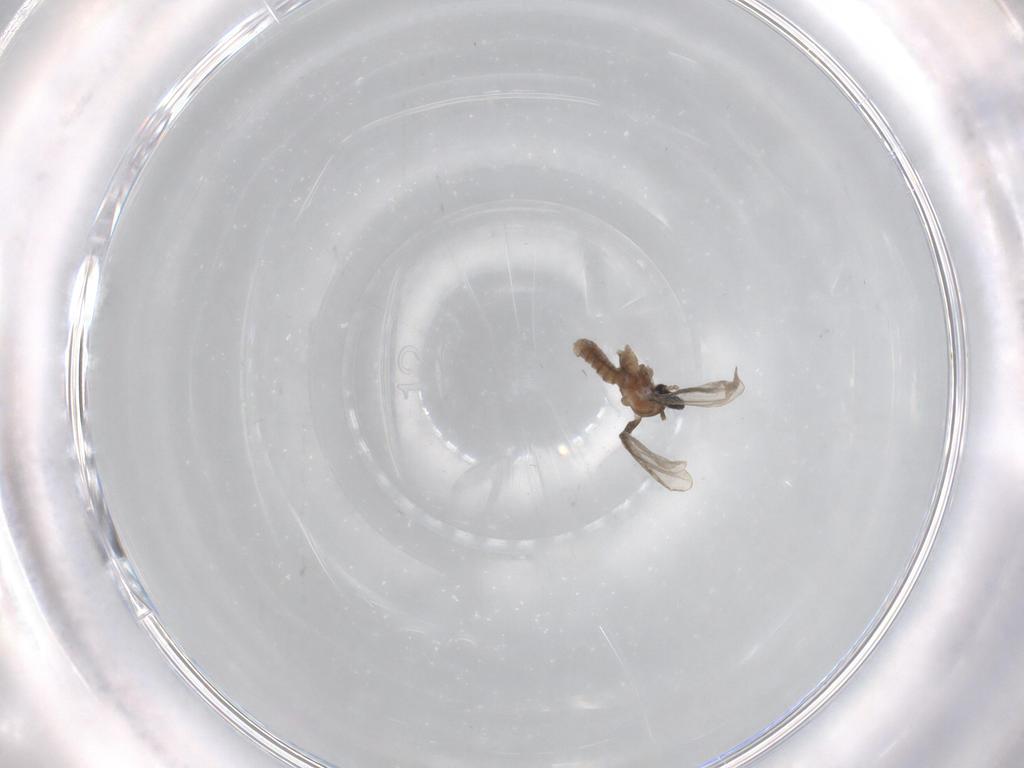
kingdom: Animalia
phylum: Arthropoda
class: Insecta
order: Diptera
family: Cecidomyiidae
